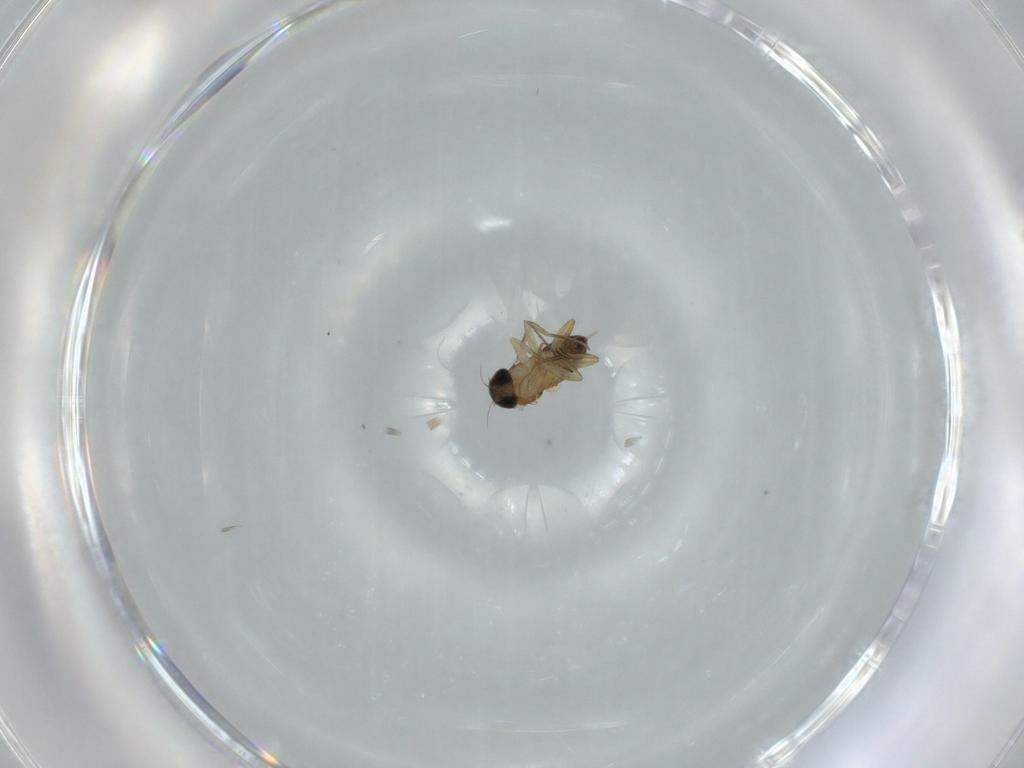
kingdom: Animalia
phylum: Arthropoda
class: Insecta
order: Diptera
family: Phoridae
